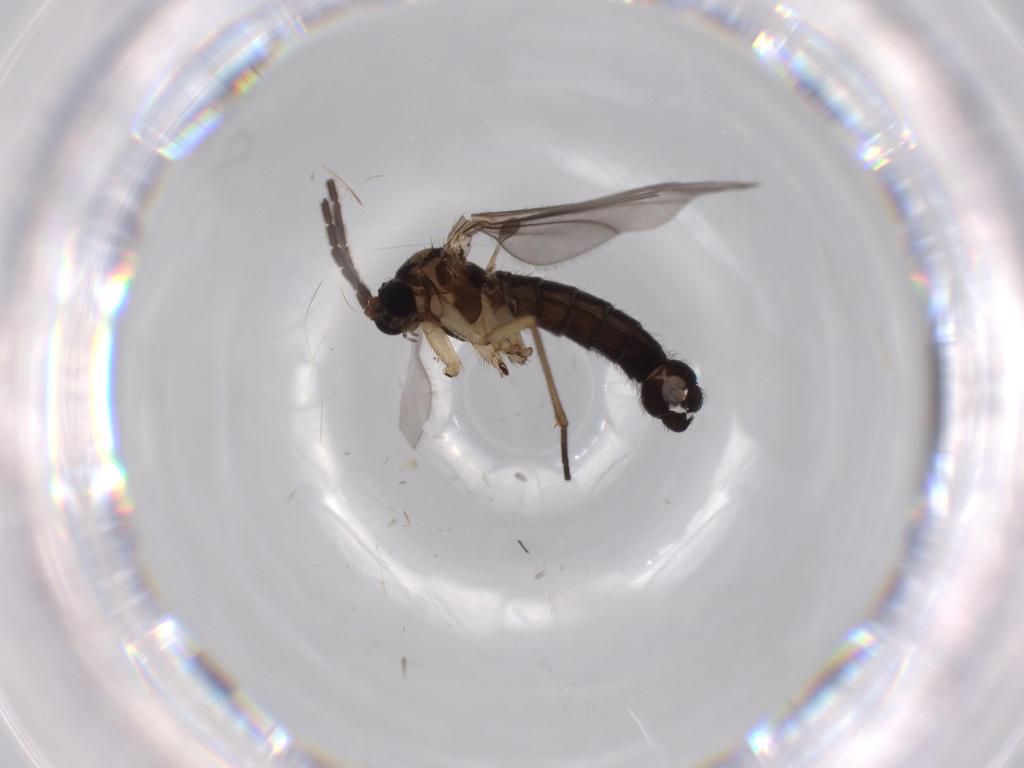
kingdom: Animalia
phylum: Arthropoda
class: Insecta
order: Diptera
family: Sciaridae
